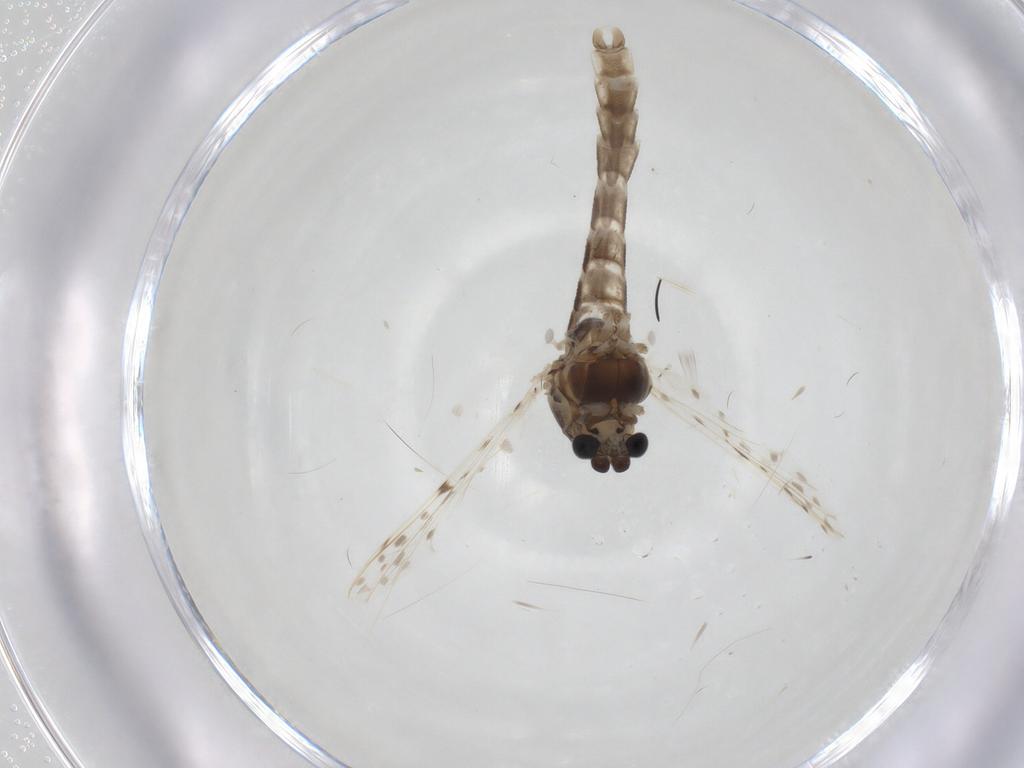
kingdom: Animalia
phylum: Arthropoda
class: Insecta
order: Diptera
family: Chironomidae
